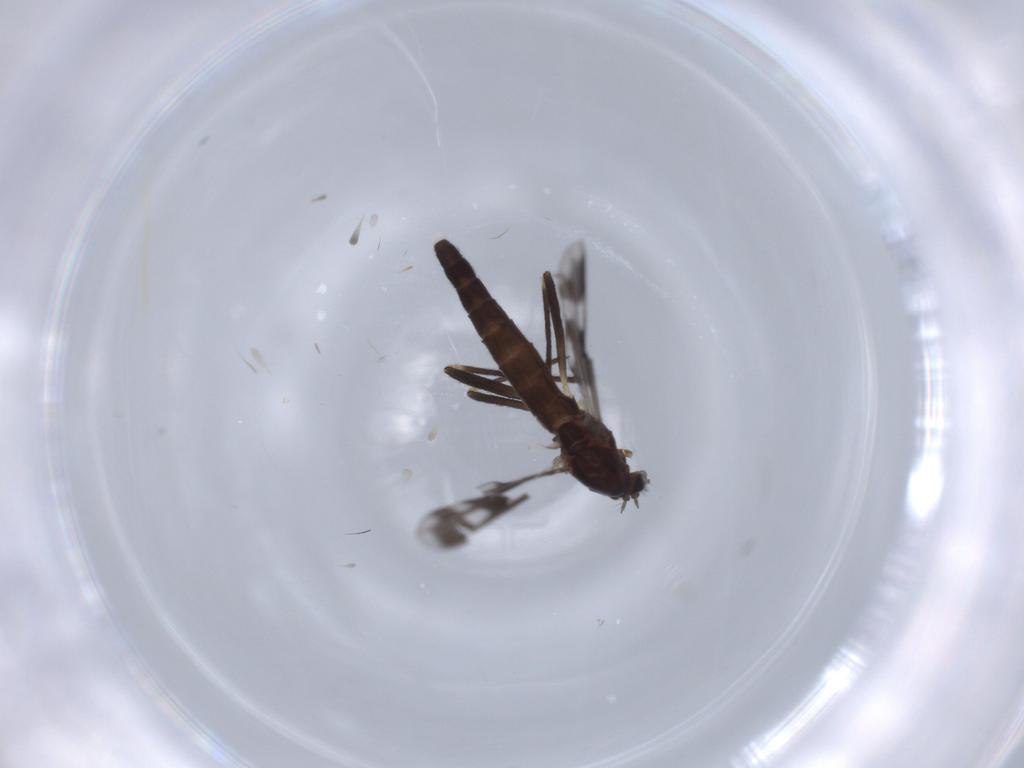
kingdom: Animalia
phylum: Arthropoda
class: Insecta
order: Diptera
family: Chironomidae
